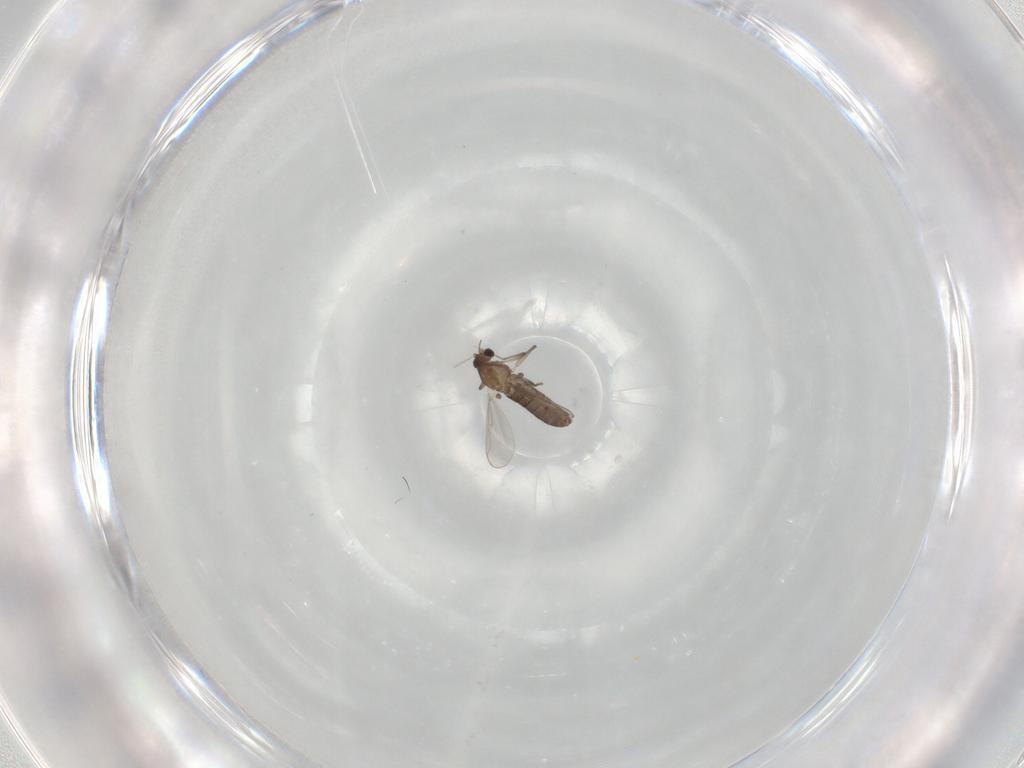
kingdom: Animalia
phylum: Arthropoda
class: Insecta
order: Diptera
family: Chironomidae
